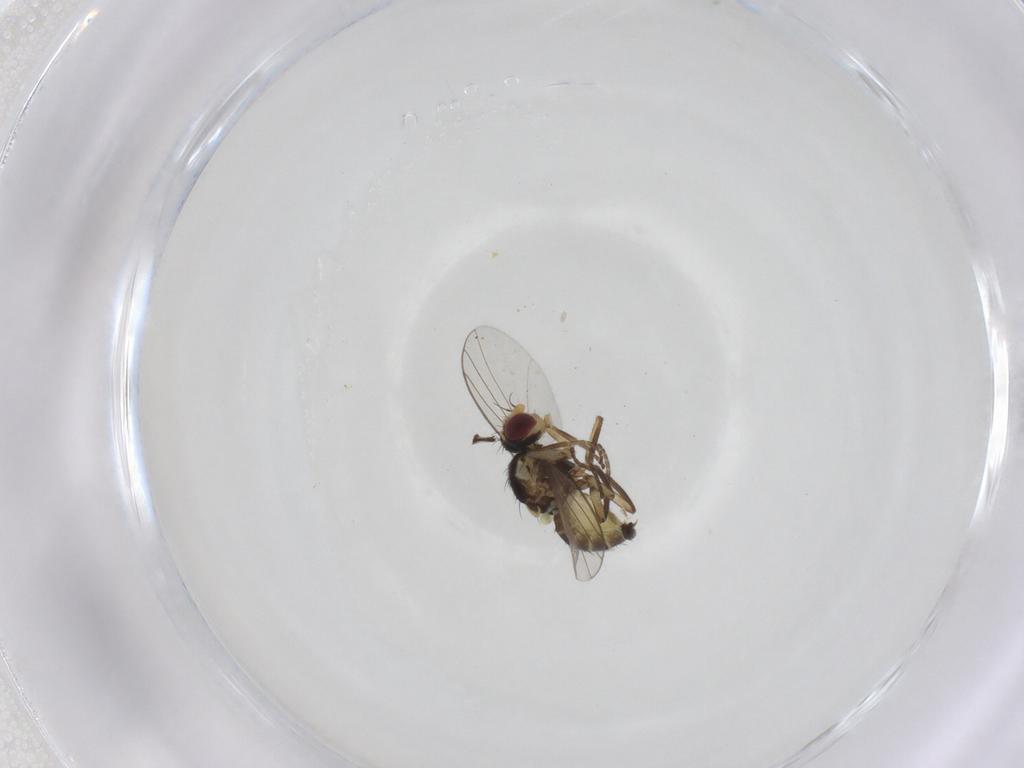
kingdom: Animalia
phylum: Arthropoda
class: Insecta
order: Diptera
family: Agromyzidae
